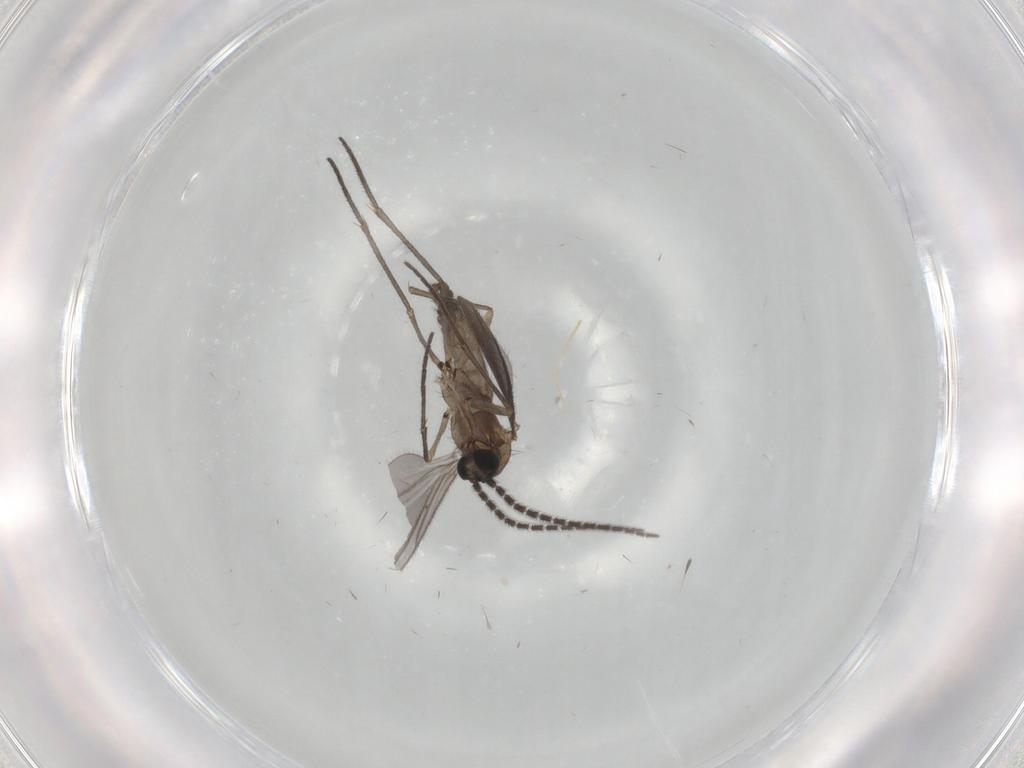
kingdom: Animalia
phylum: Arthropoda
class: Insecta
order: Diptera
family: Sciaridae
